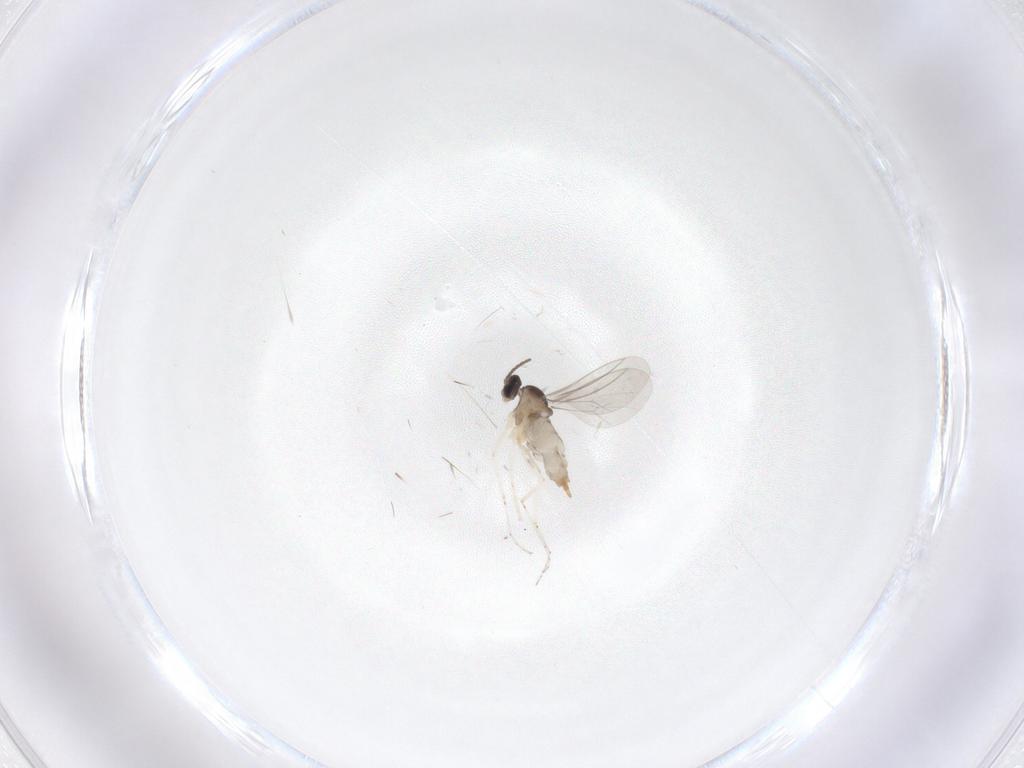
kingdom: Animalia
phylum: Arthropoda
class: Insecta
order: Diptera
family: Cecidomyiidae
